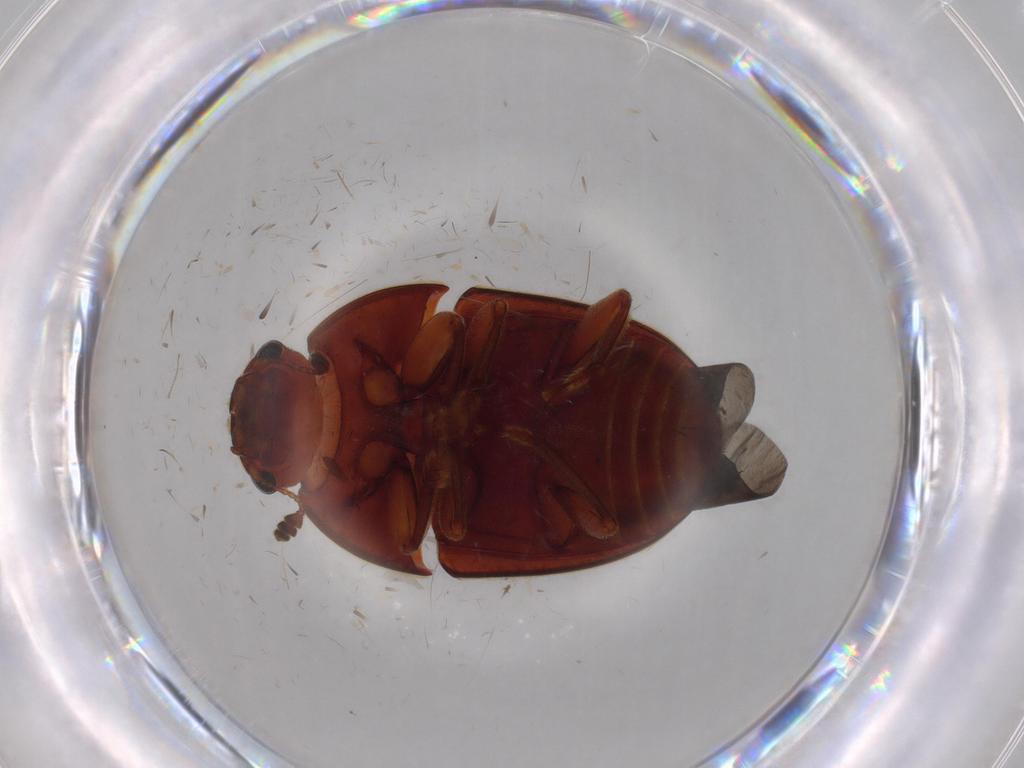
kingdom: Animalia
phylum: Arthropoda
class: Insecta
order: Coleoptera
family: Nitidulidae
